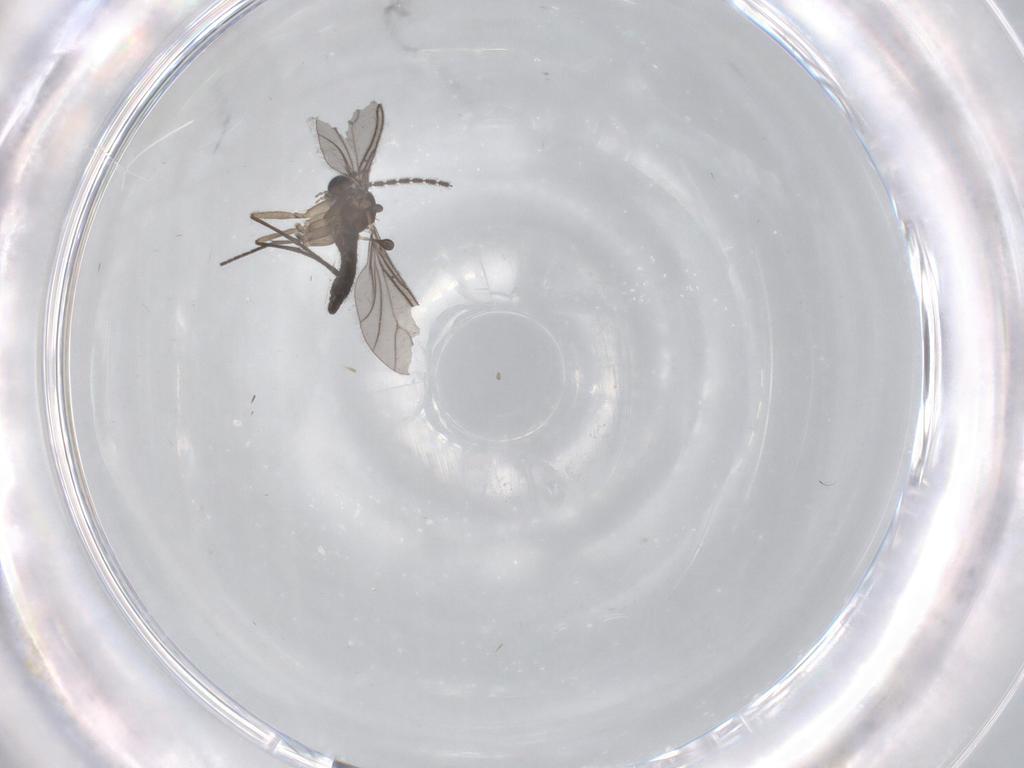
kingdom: Animalia
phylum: Arthropoda
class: Insecta
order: Diptera
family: Sciaridae
